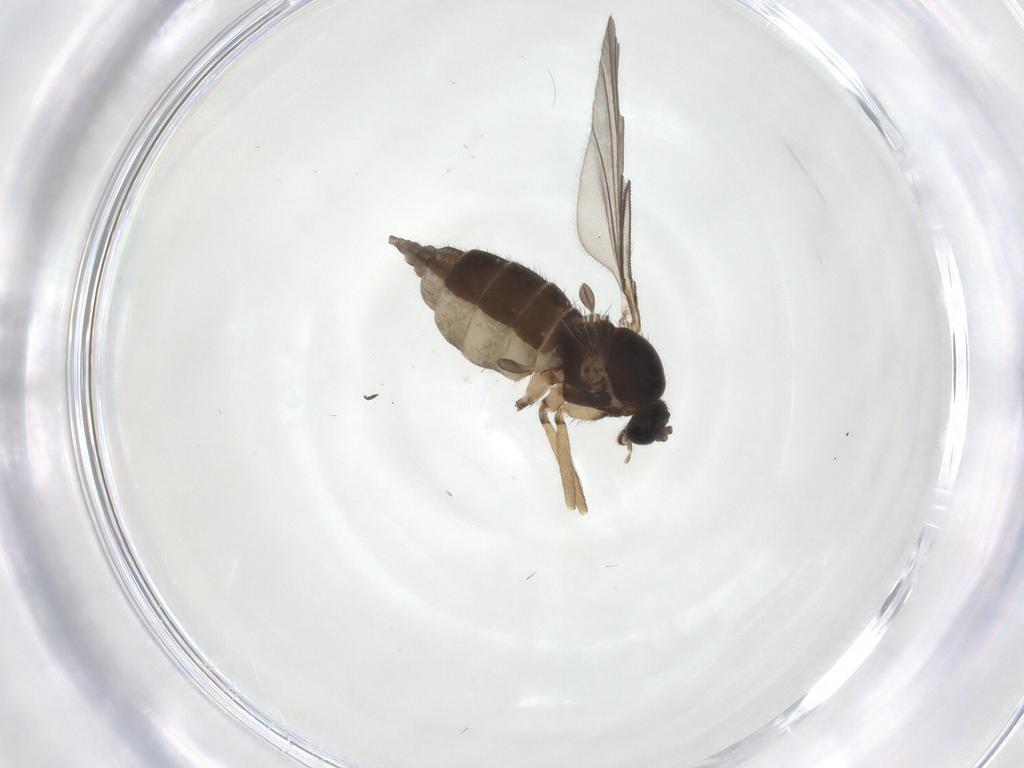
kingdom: Animalia
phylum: Arthropoda
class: Insecta
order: Diptera
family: Sciaridae
